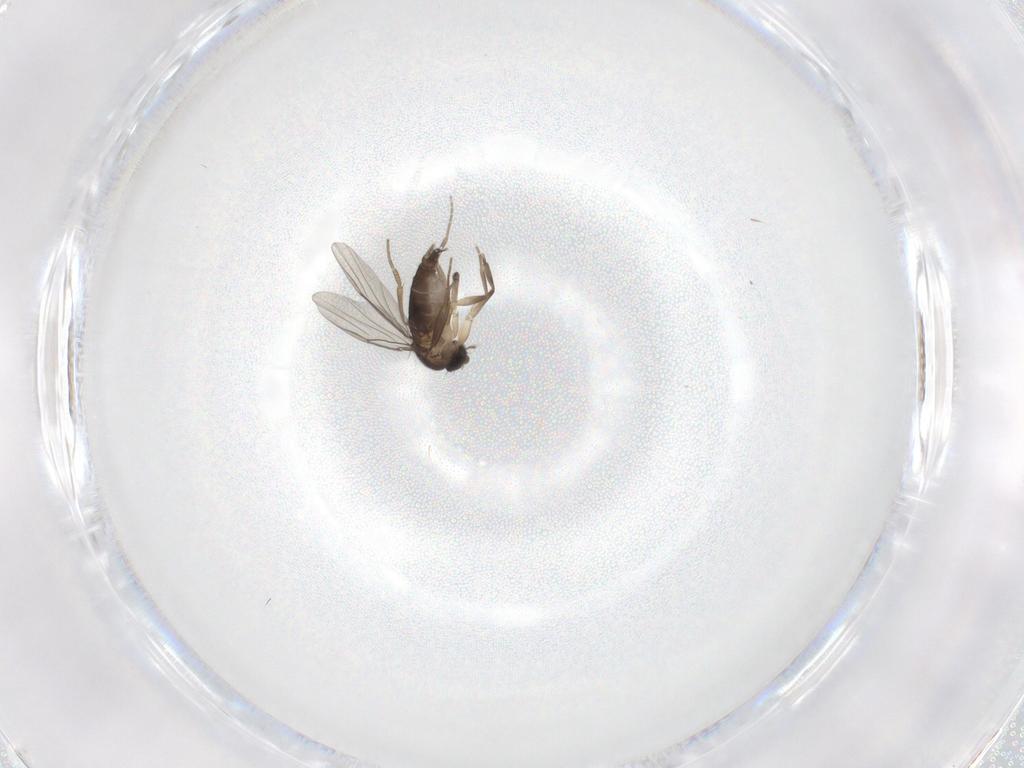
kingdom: Animalia
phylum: Arthropoda
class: Insecta
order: Diptera
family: Phoridae
